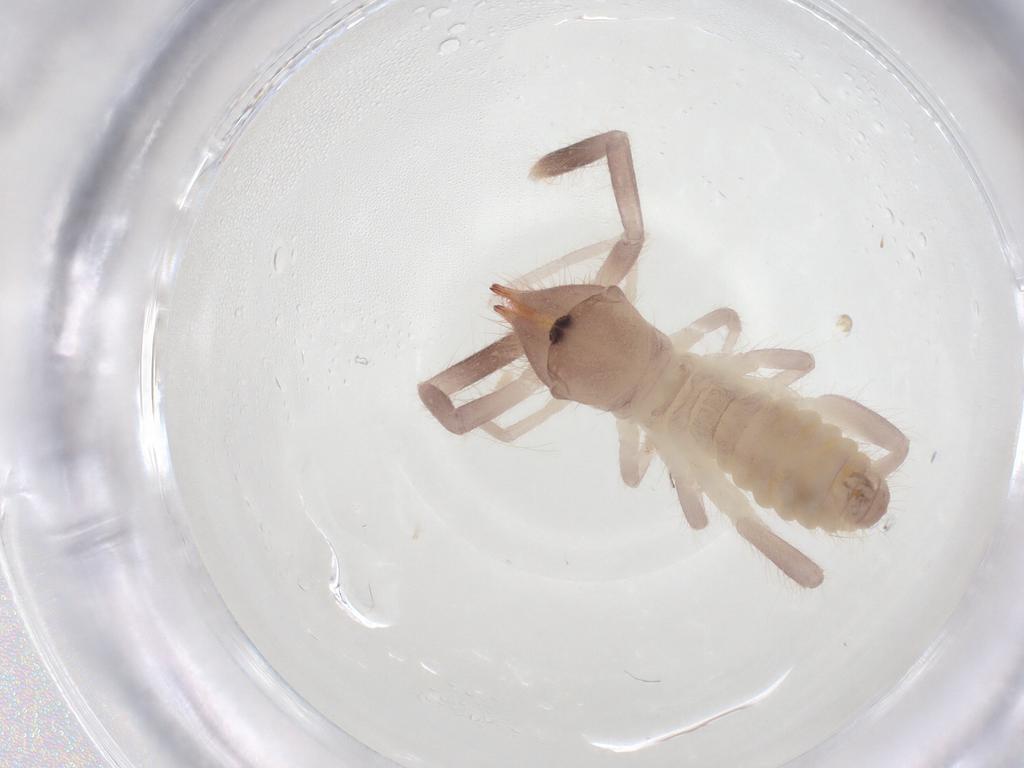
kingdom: Animalia
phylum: Arthropoda
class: Arachnida
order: Solifugae
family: Ammotrechidae
